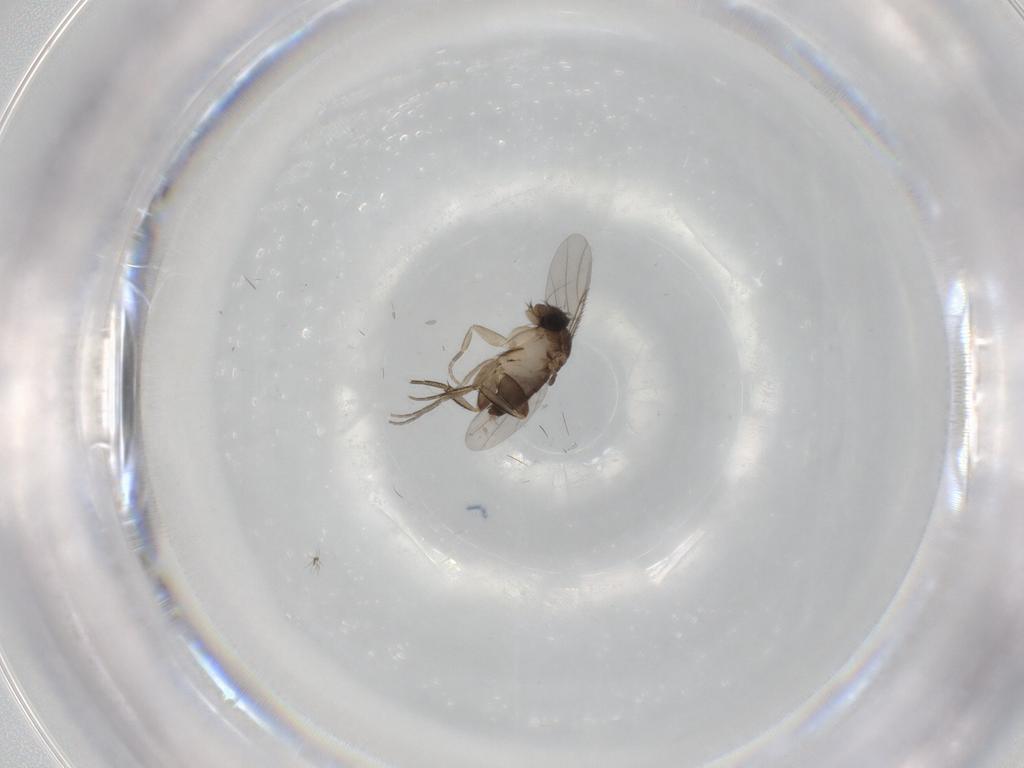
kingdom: Animalia
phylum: Arthropoda
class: Insecta
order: Diptera
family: Phoridae
